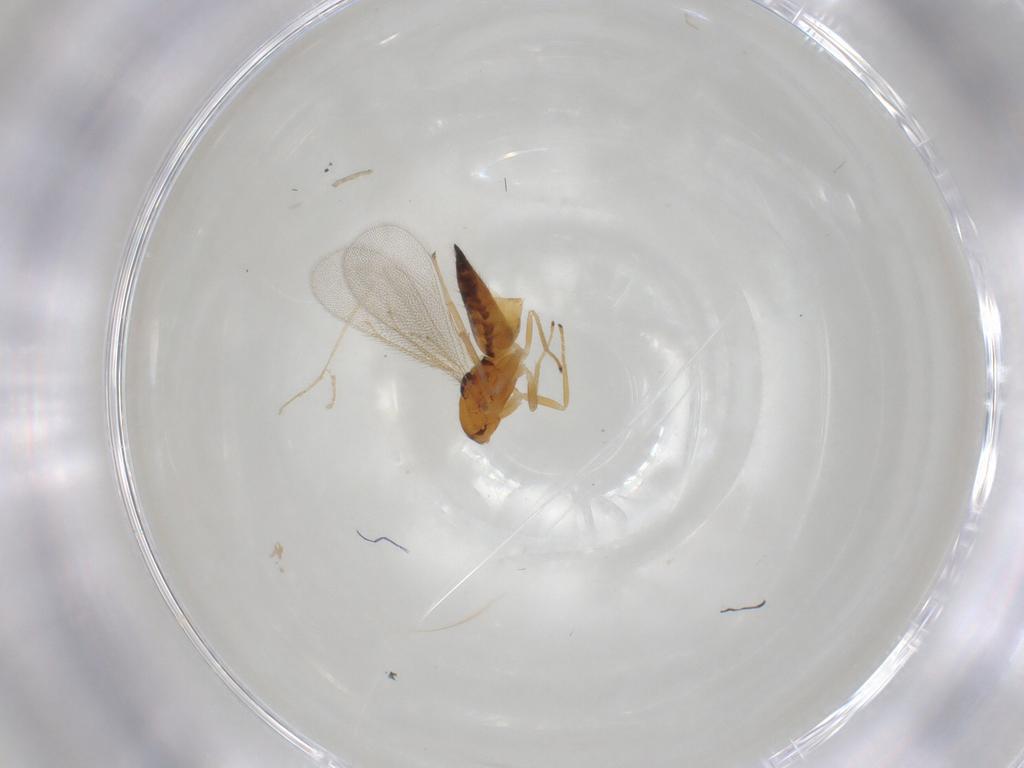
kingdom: Animalia
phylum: Arthropoda
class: Insecta
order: Hymenoptera
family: Eulophidae
